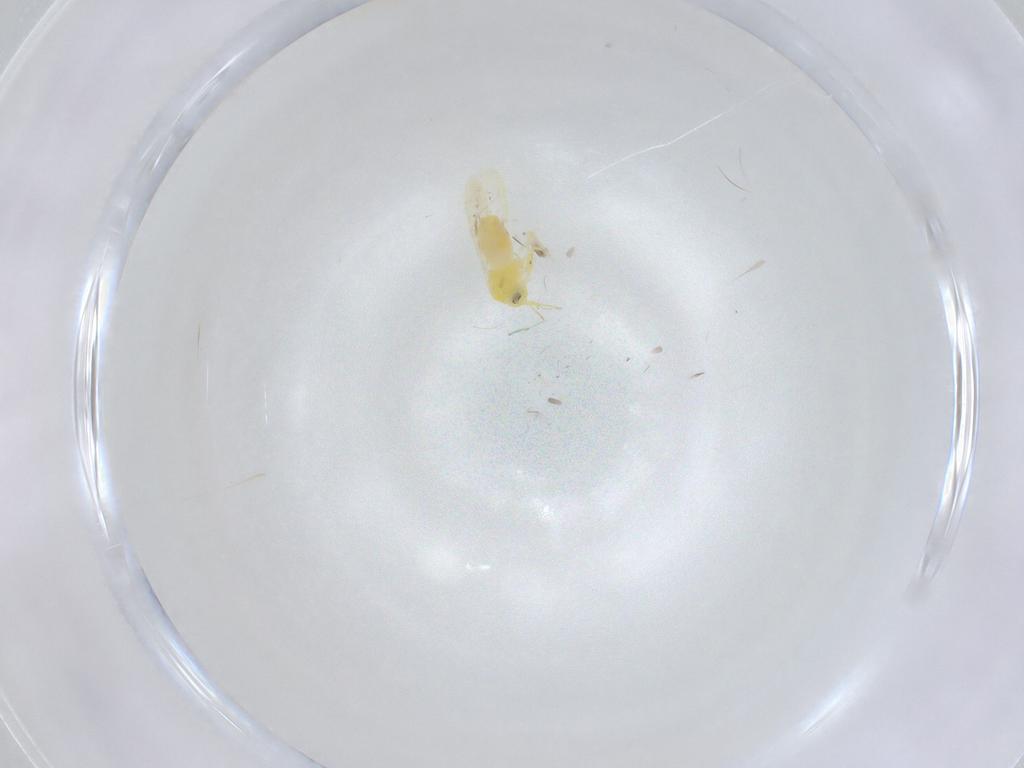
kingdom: Animalia
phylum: Arthropoda
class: Insecta
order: Hemiptera
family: Aleyrodidae
